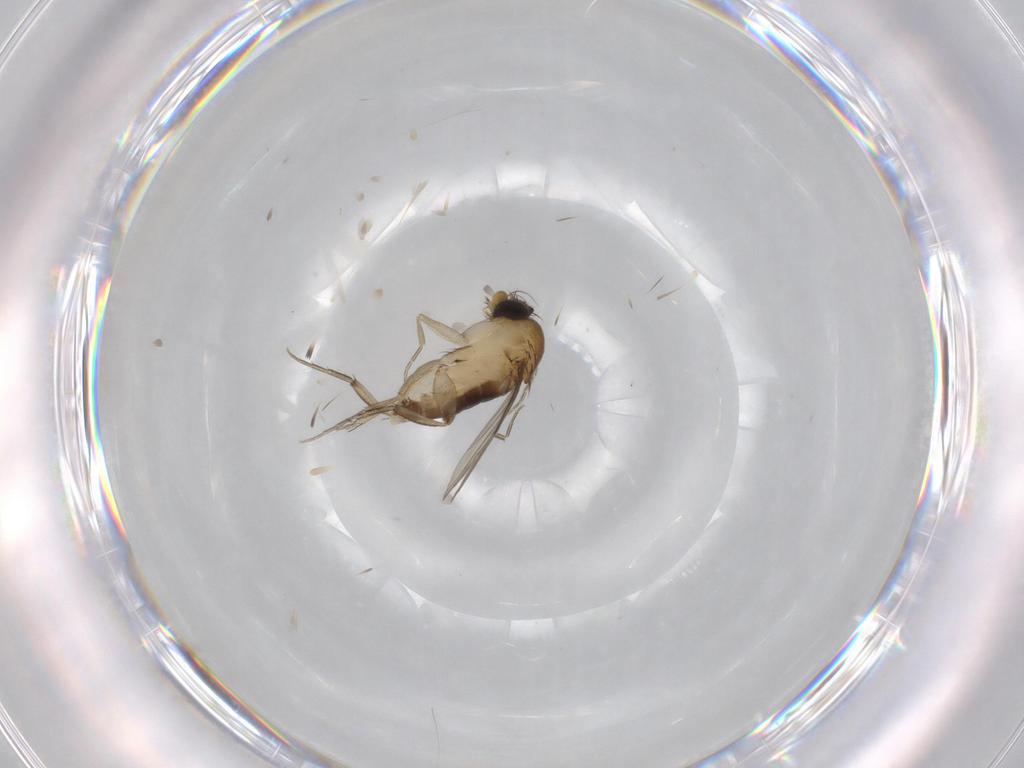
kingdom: Animalia
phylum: Arthropoda
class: Insecta
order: Diptera
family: Phoridae
